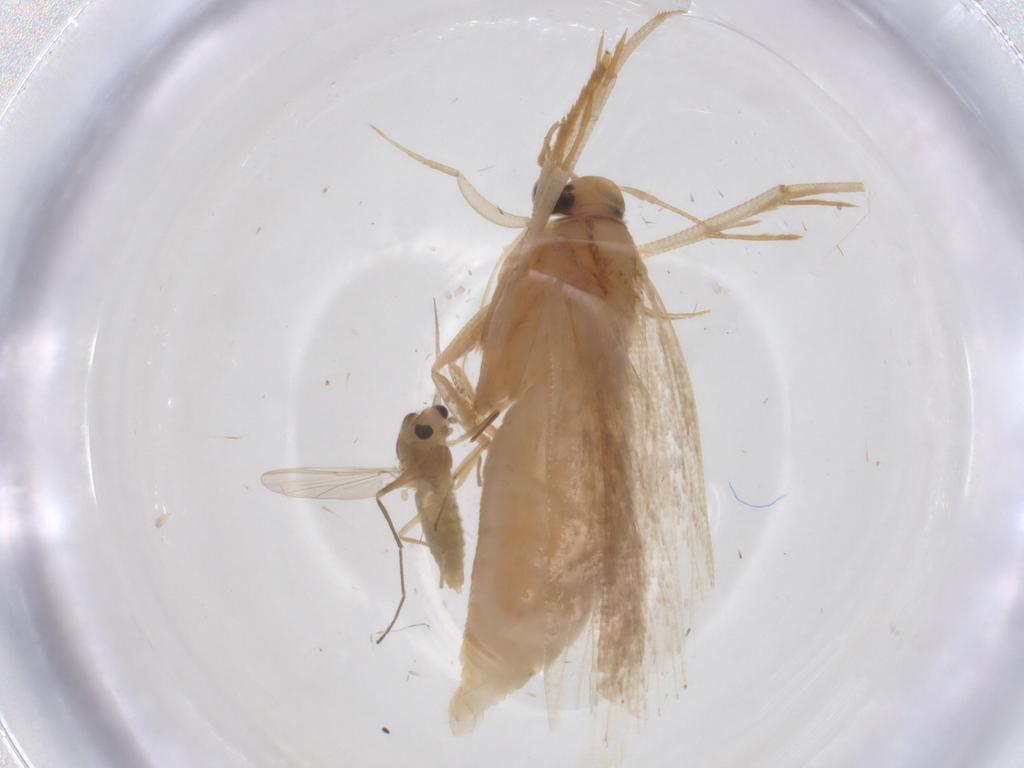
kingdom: Animalia
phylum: Arthropoda
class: Insecta
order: Lepidoptera
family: Gelechiidae
